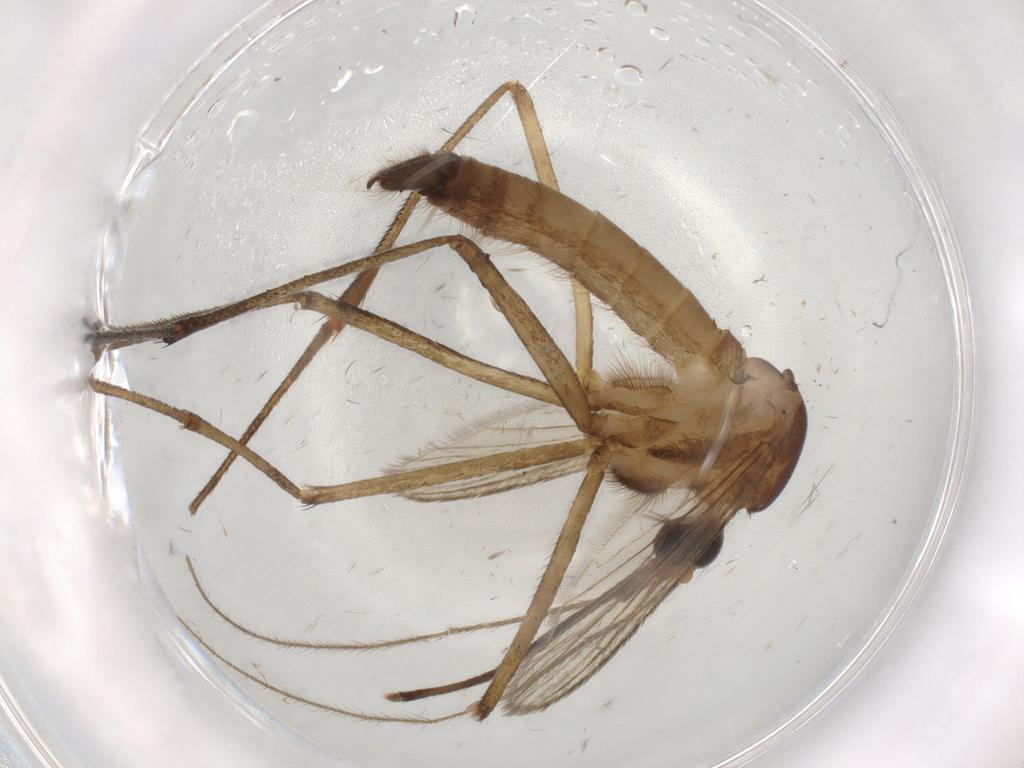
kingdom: Animalia
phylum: Arthropoda
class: Insecta
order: Diptera
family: Culicidae
